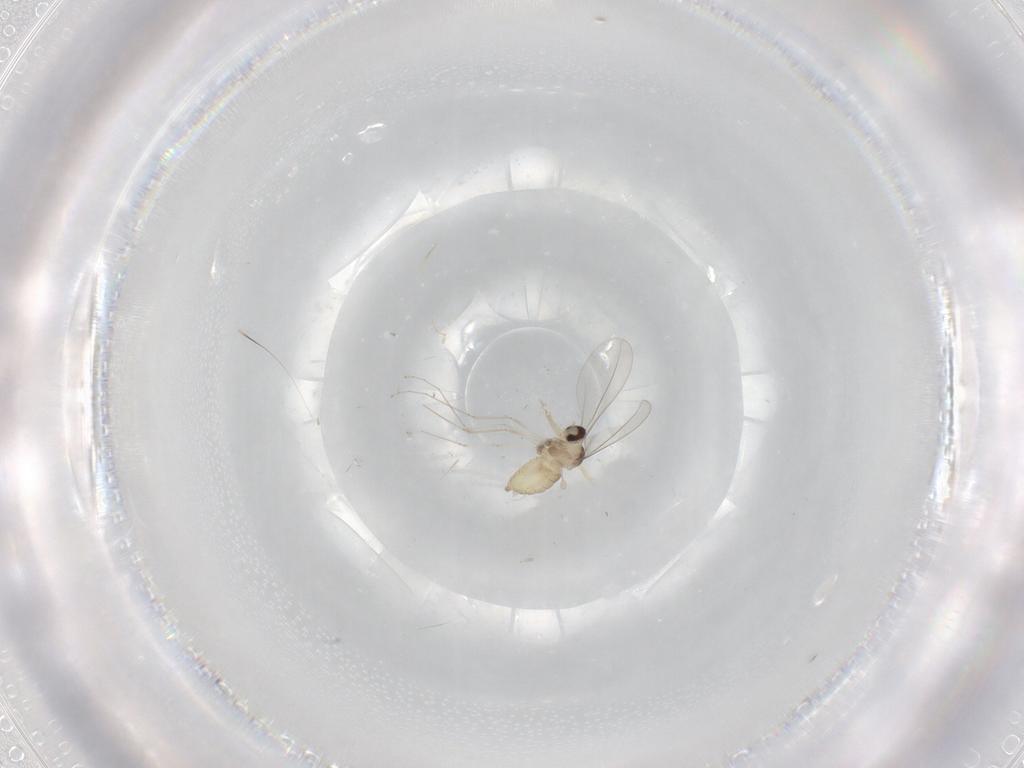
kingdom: Animalia
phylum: Arthropoda
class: Insecta
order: Diptera
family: Cecidomyiidae
